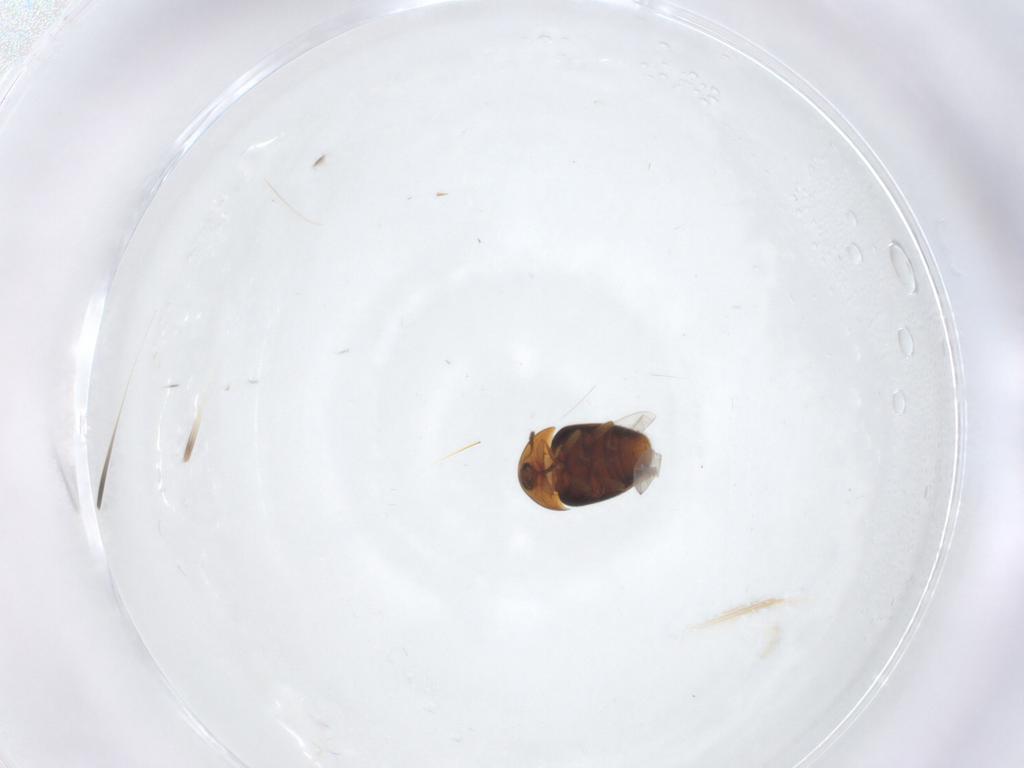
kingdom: Animalia
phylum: Arthropoda
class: Insecta
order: Coleoptera
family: Corylophidae
